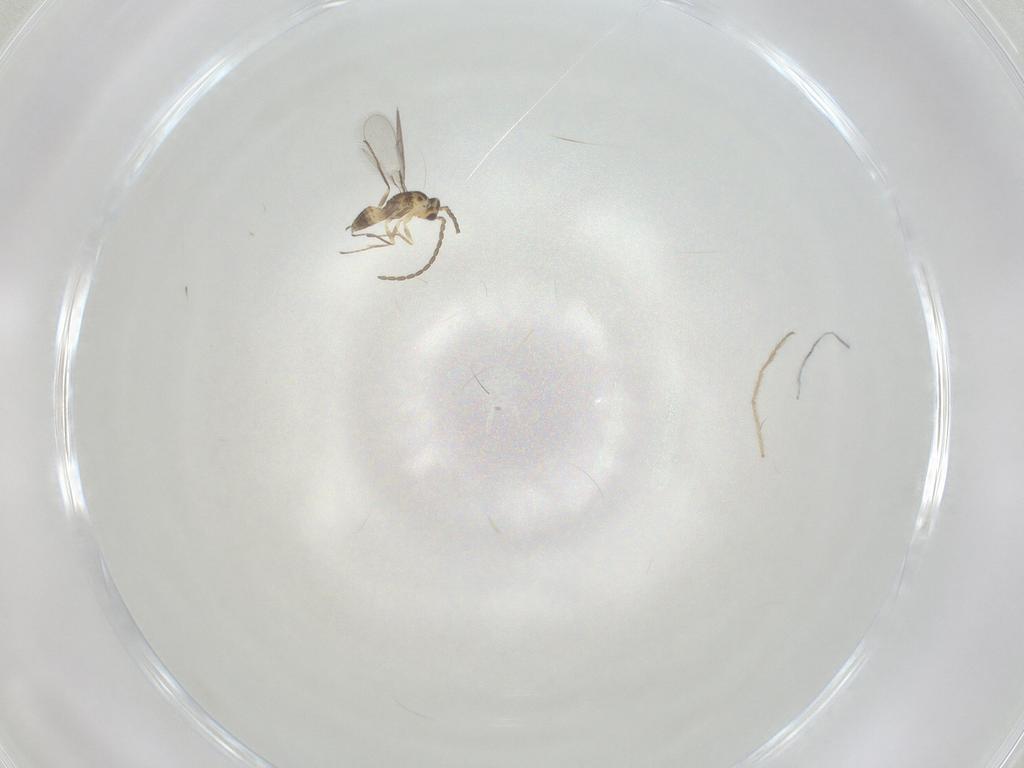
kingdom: Animalia
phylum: Arthropoda
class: Insecta
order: Hymenoptera
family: Mymaridae
